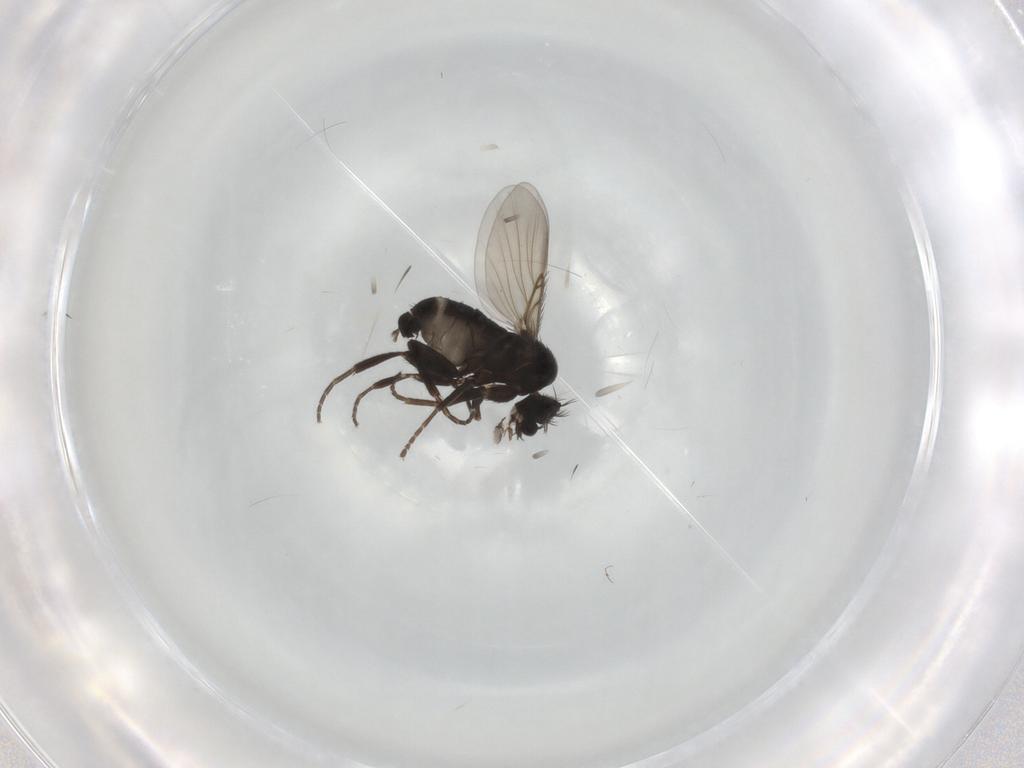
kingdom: Animalia
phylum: Arthropoda
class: Insecta
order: Diptera
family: Phoridae
